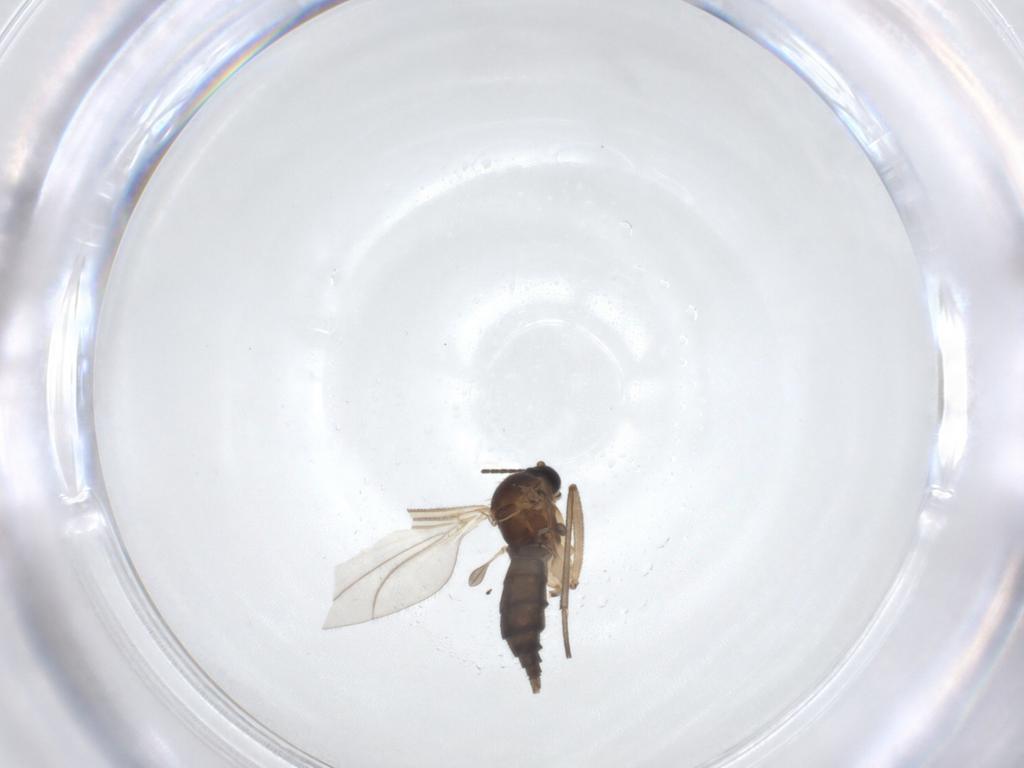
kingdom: Animalia
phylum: Arthropoda
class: Insecta
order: Diptera
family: Sciaridae
